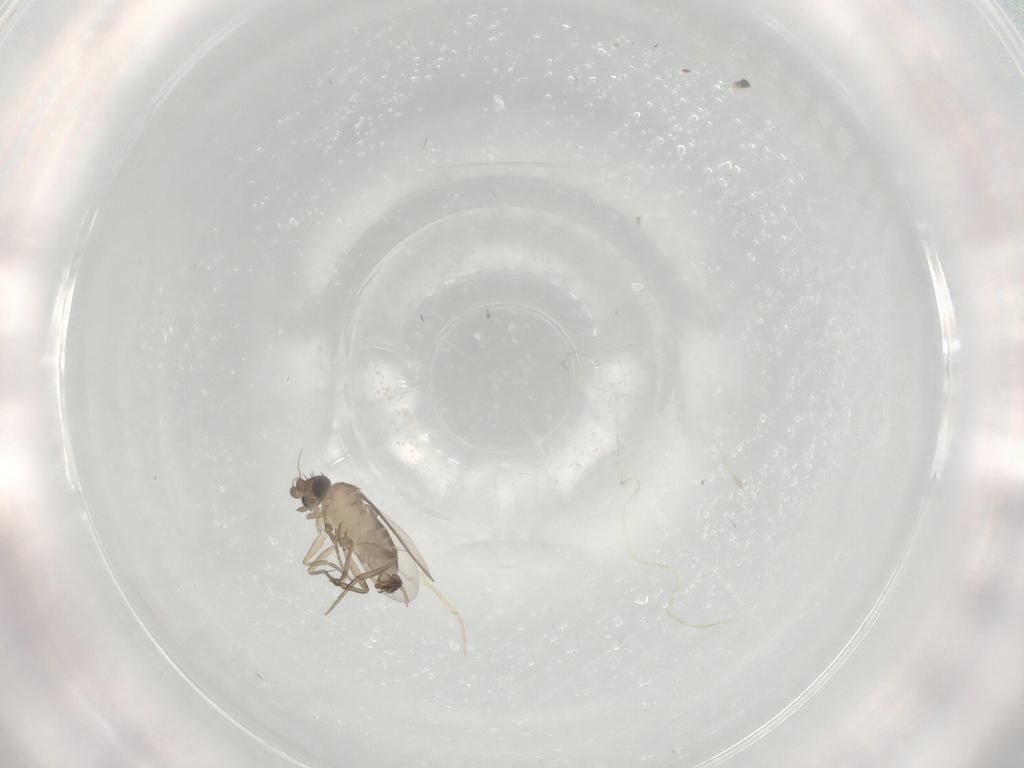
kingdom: Animalia
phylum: Arthropoda
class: Insecta
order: Diptera
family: Phoridae
